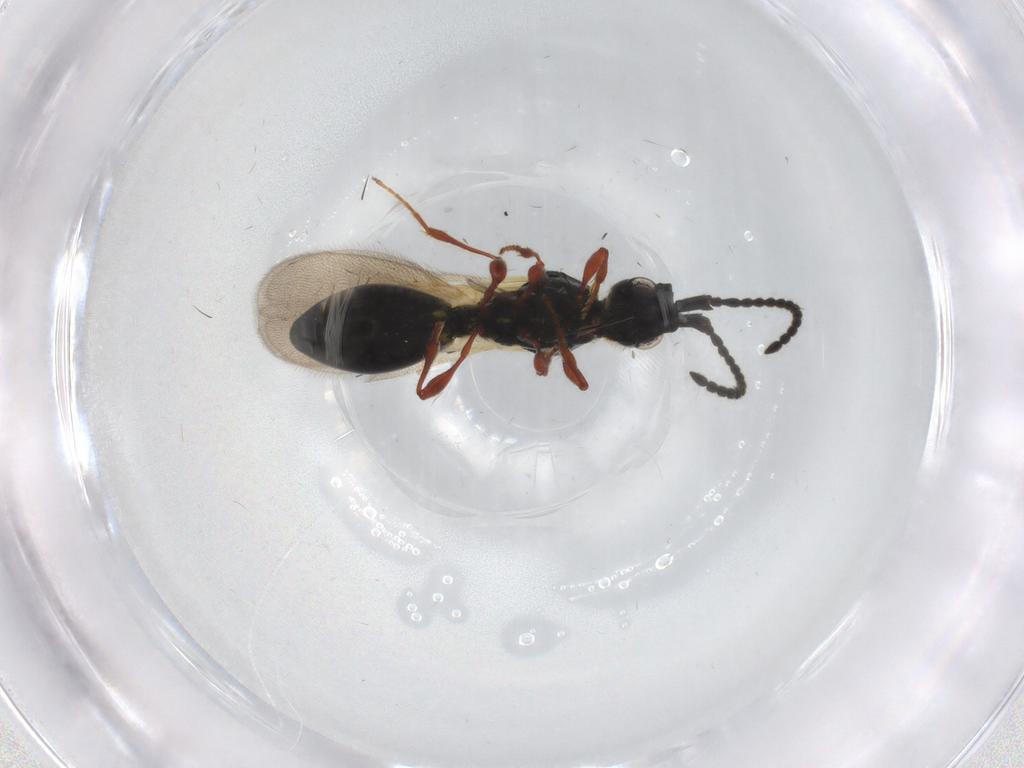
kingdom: Animalia
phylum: Arthropoda
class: Insecta
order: Hymenoptera
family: Diapriidae
